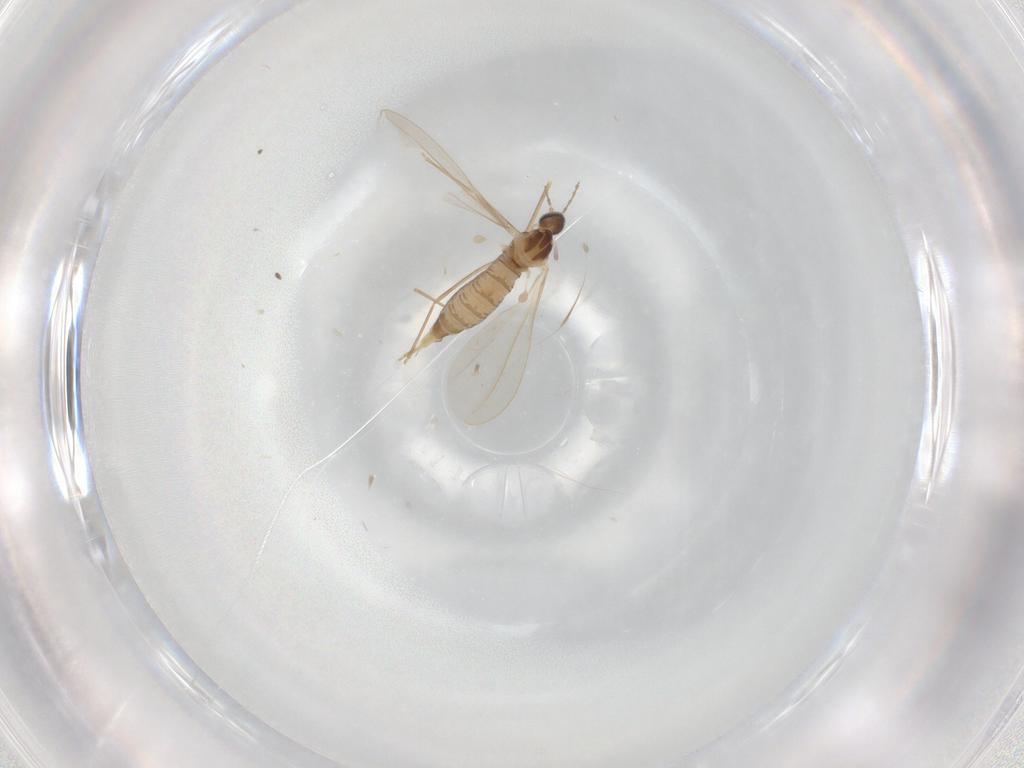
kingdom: Animalia
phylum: Arthropoda
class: Insecta
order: Diptera
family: Cecidomyiidae
